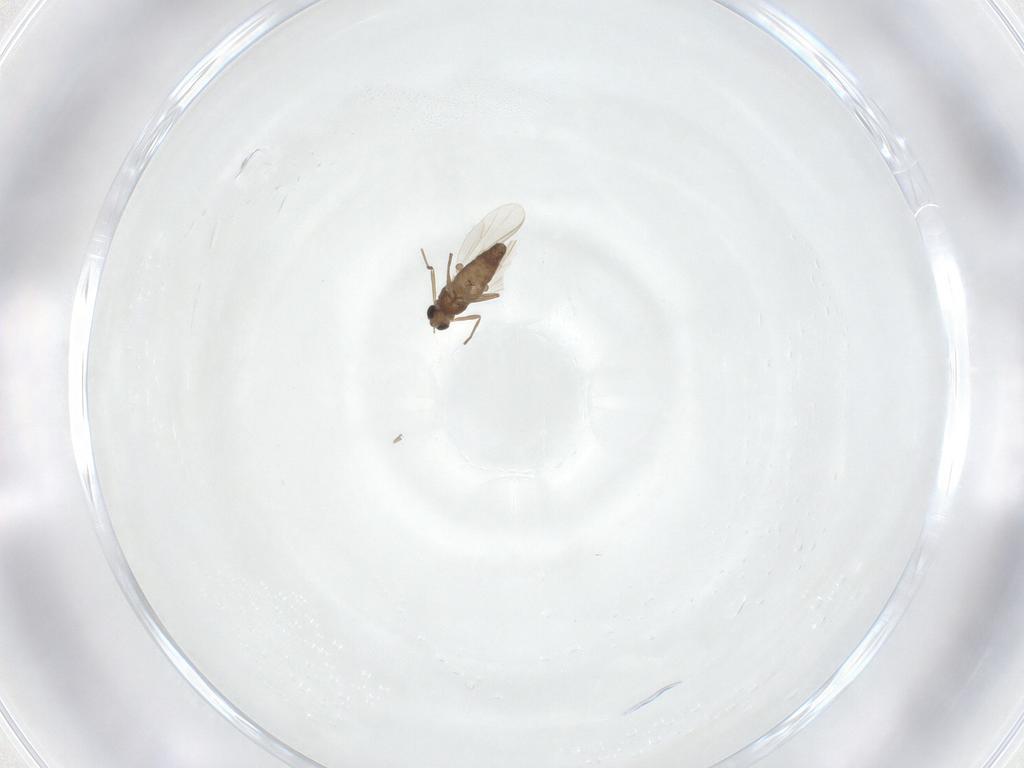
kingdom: Animalia
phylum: Arthropoda
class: Insecta
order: Diptera
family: Chironomidae
